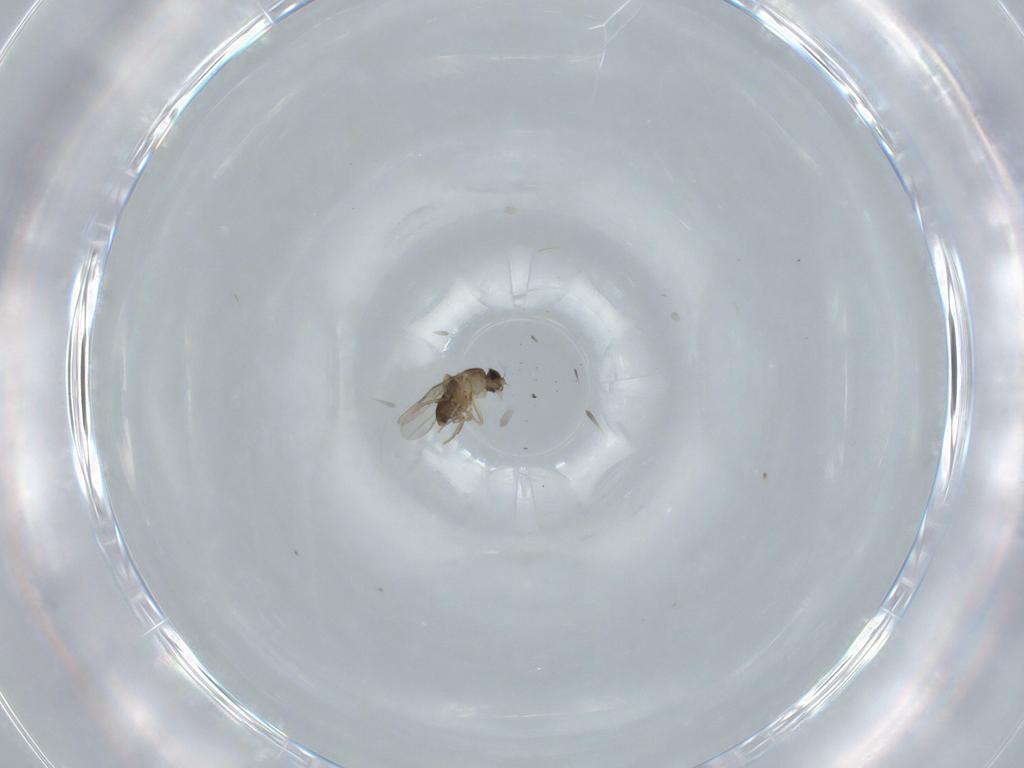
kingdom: Animalia
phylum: Arthropoda
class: Insecta
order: Diptera
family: Phoridae
